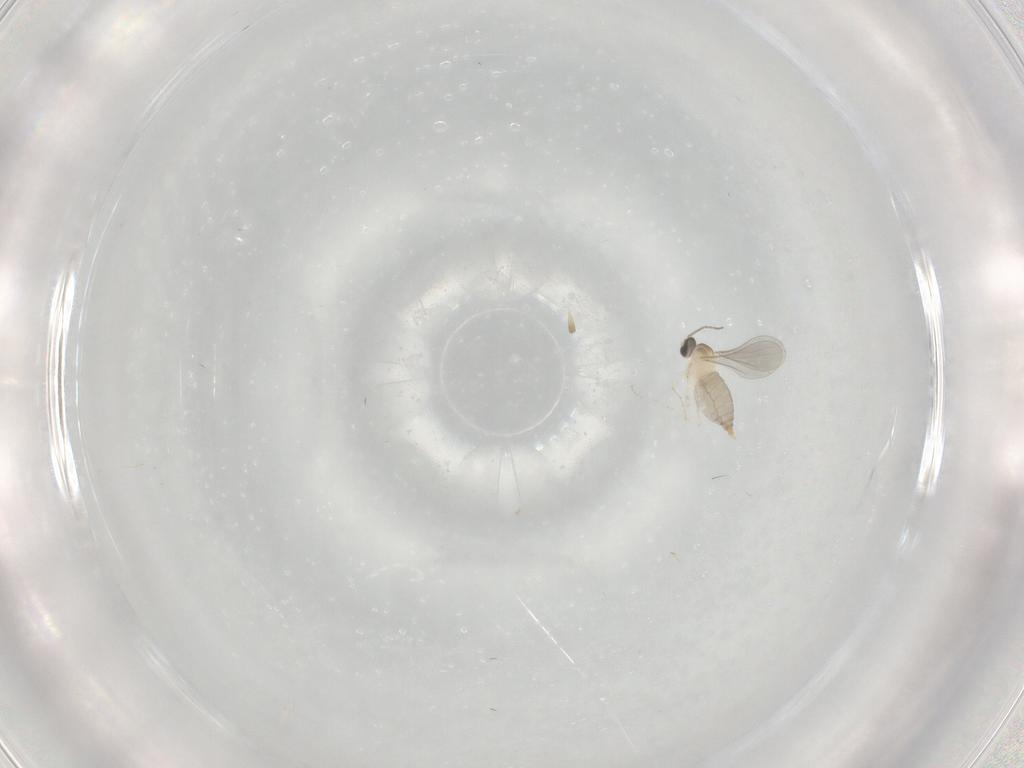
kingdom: Animalia
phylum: Arthropoda
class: Insecta
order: Diptera
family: Cecidomyiidae
